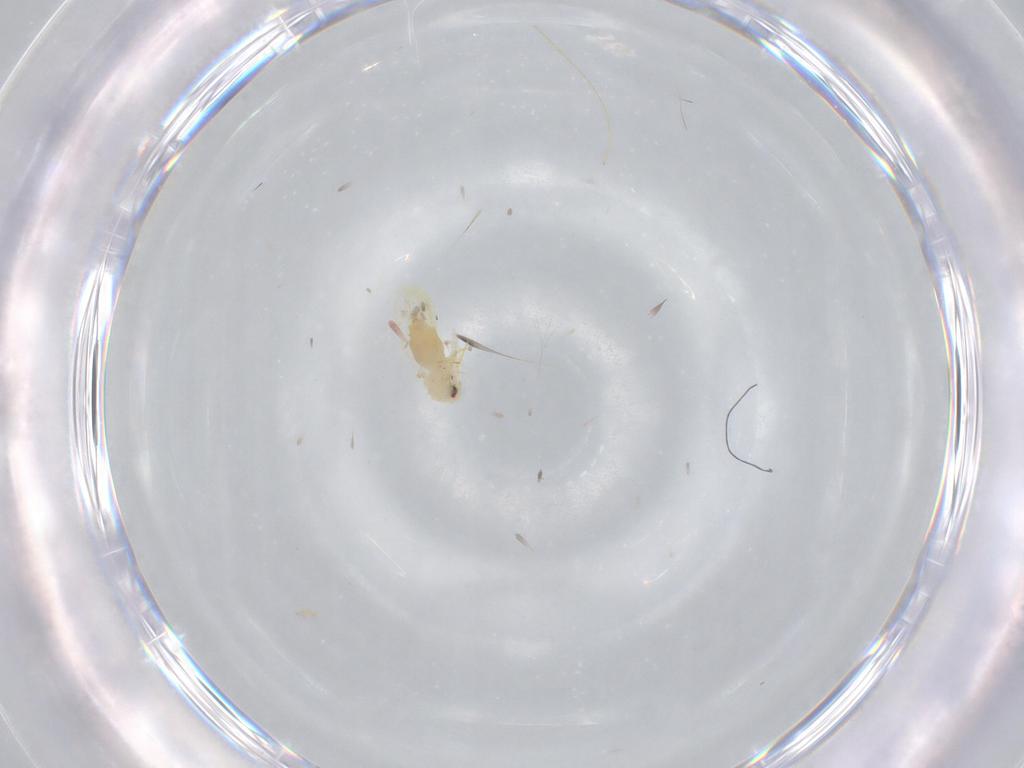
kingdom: Animalia
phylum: Arthropoda
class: Insecta
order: Hemiptera
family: Aleyrodidae
